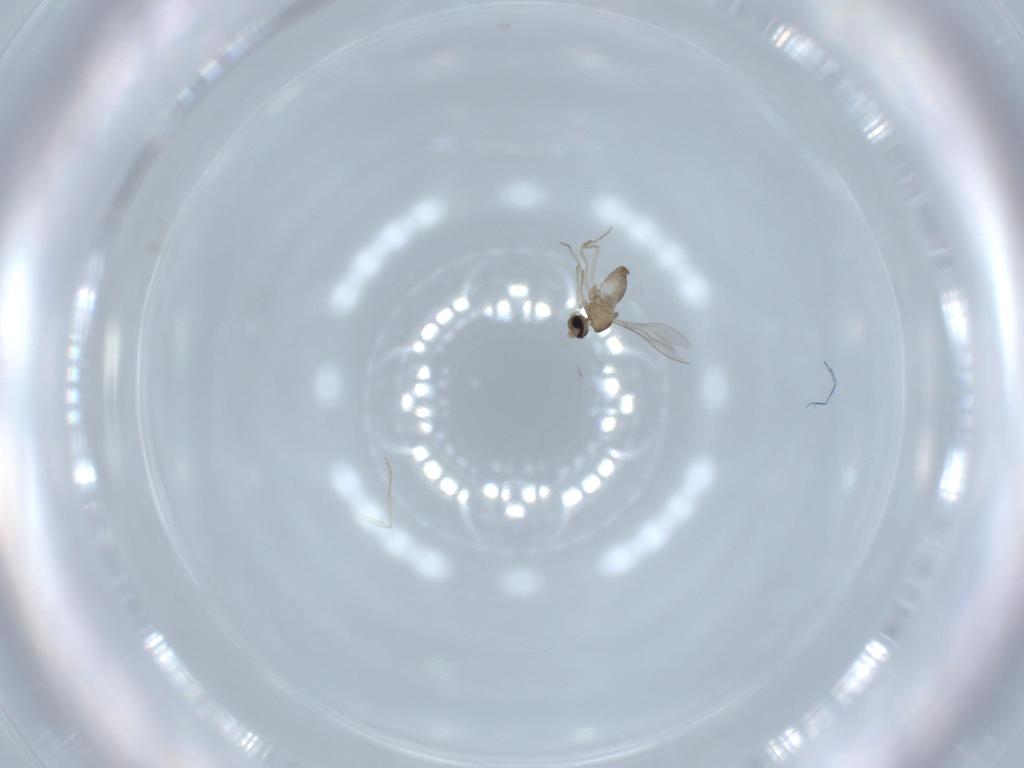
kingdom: Animalia
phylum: Arthropoda
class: Insecta
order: Diptera
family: Cecidomyiidae
